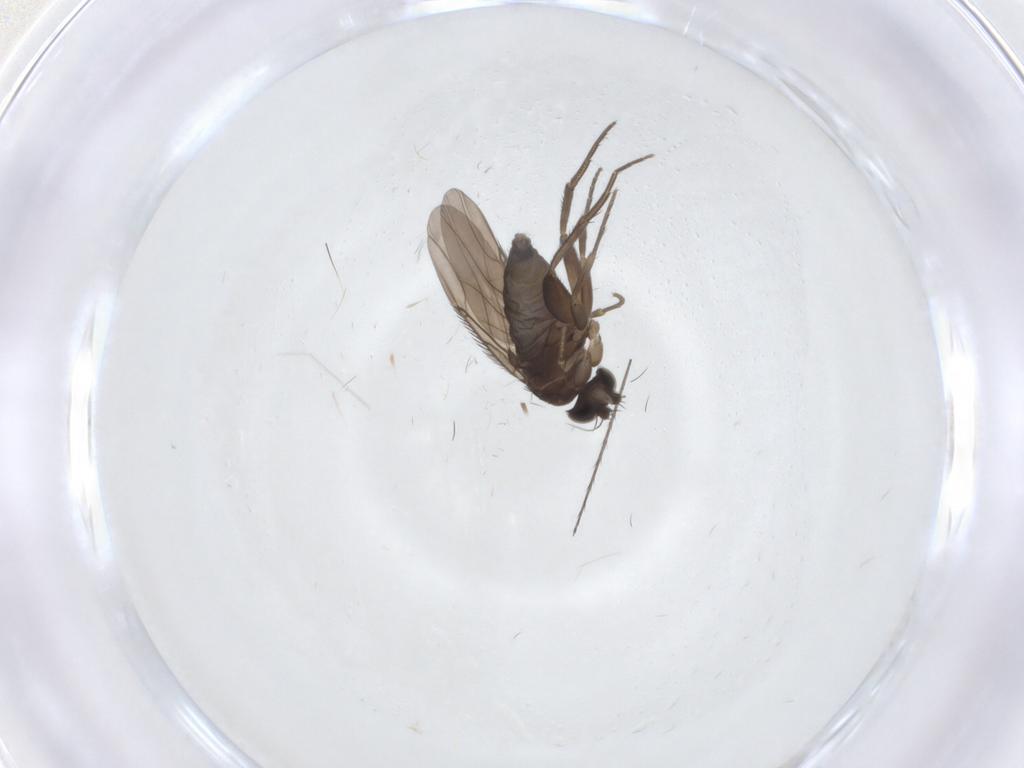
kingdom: Animalia
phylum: Arthropoda
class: Insecta
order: Diptera
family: Phoridae
